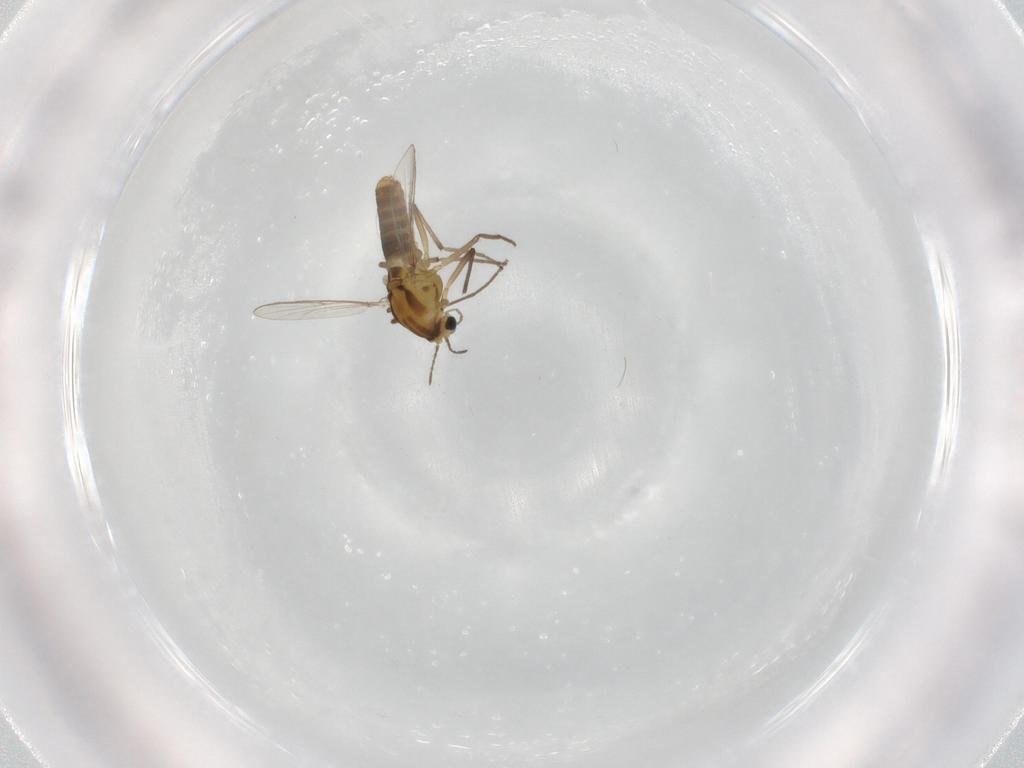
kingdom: Animalia
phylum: Arthropoda
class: Insecta
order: Diptera
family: Chironomidae
